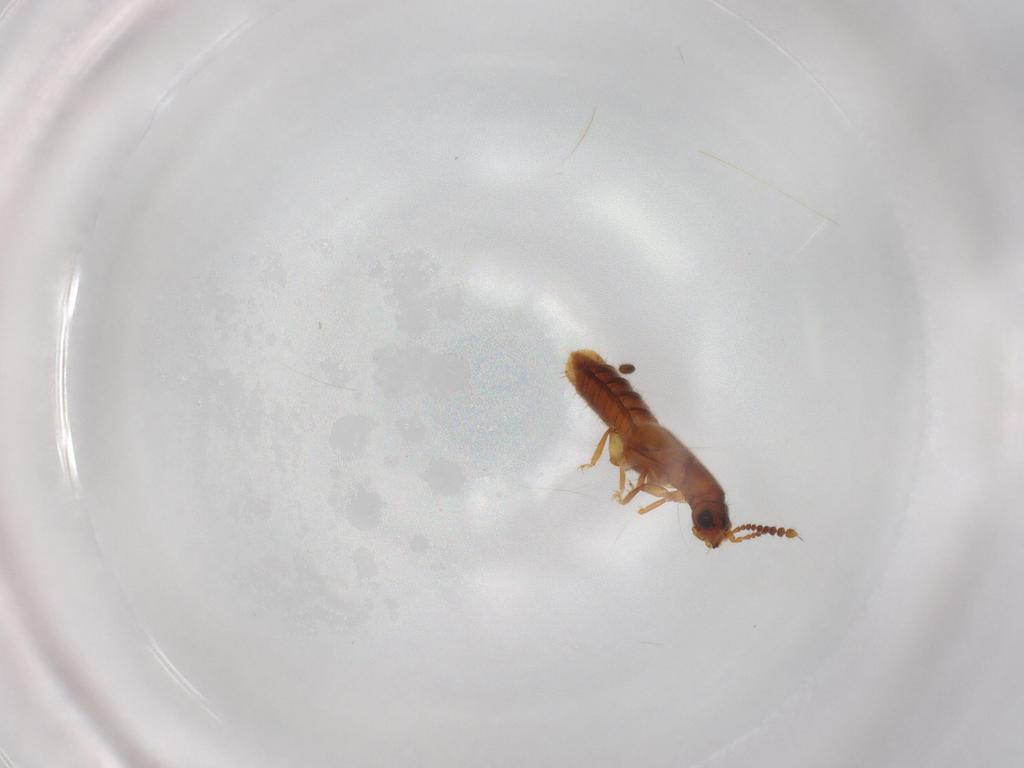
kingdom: Animalia
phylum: Arthropoda
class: Insecta
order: Coleoptera
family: Staphylinidae
